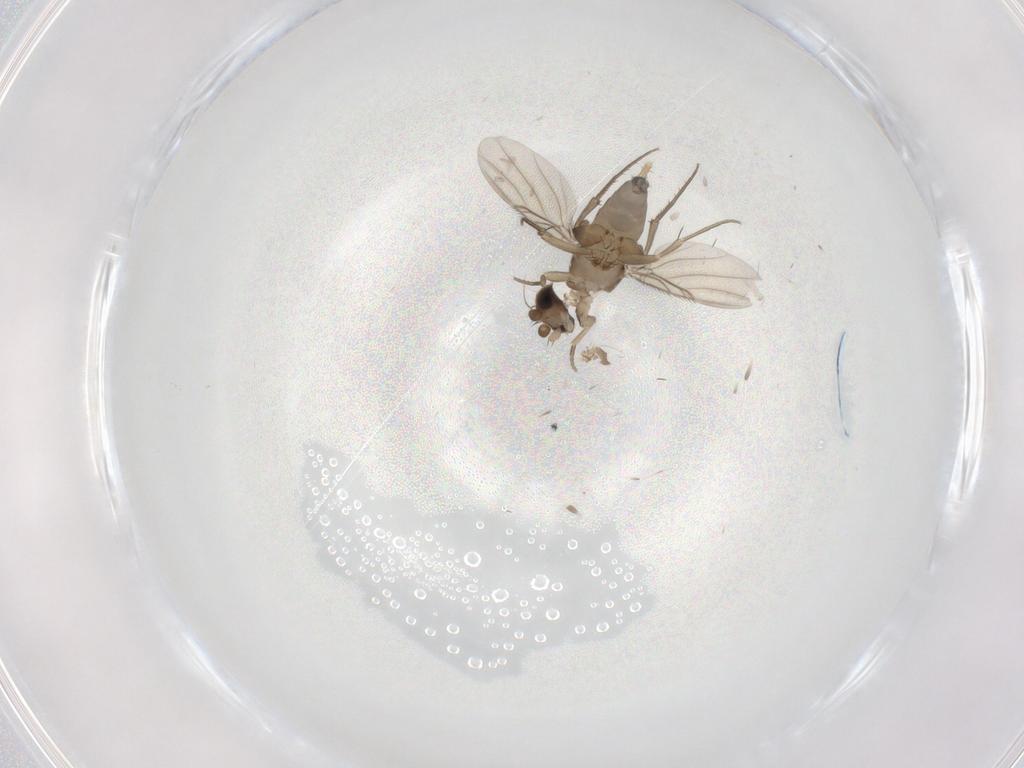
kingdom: Animalia
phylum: Arthropoda
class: Insecta
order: Diptera
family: Phoridae
